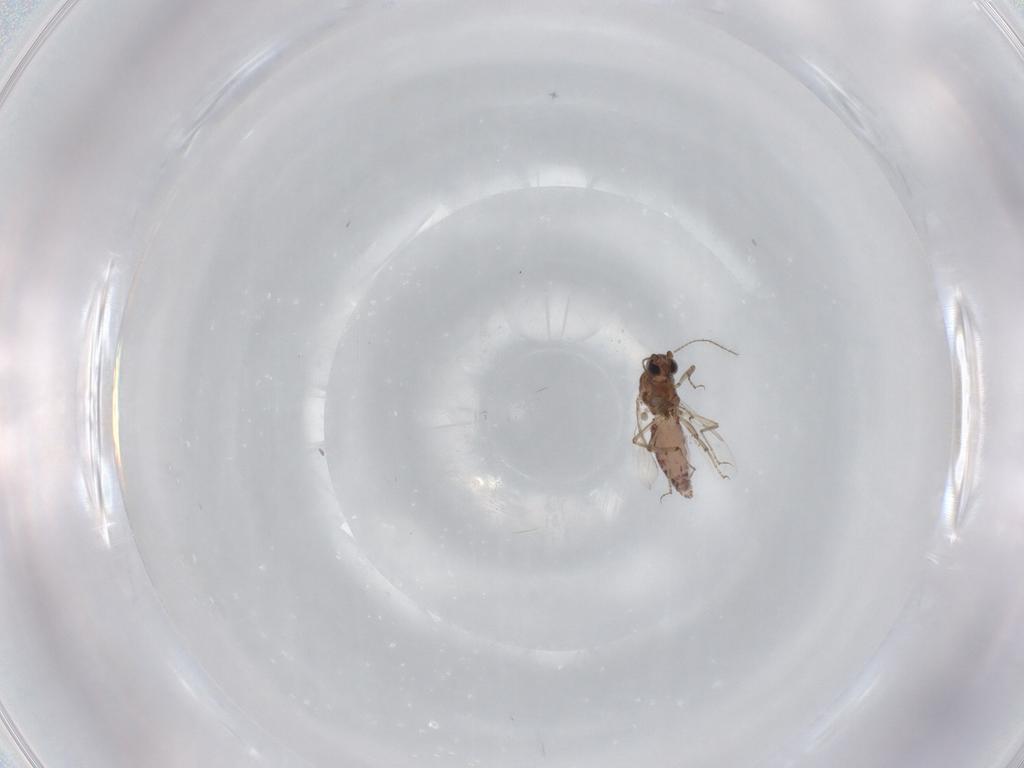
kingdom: Animalia
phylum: Arthropoda
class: Insecta
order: Diptera
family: Ceratopogonidae
